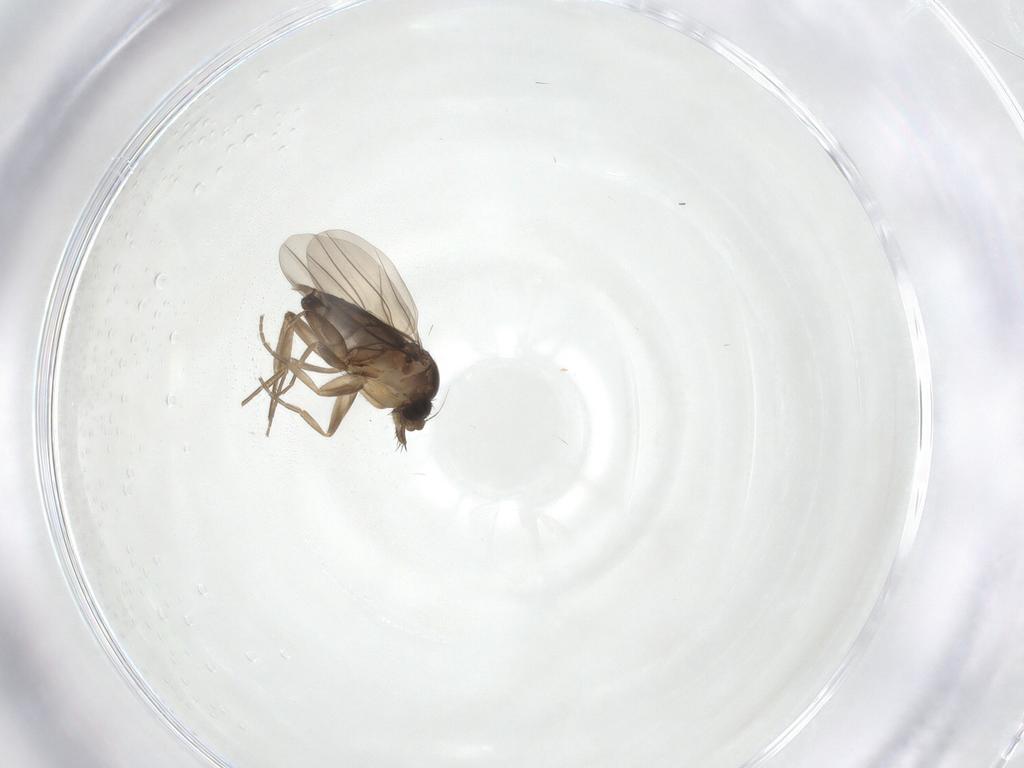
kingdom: Animalia
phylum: Arthropoda
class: Insecta
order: Diptera
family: Phoridae
